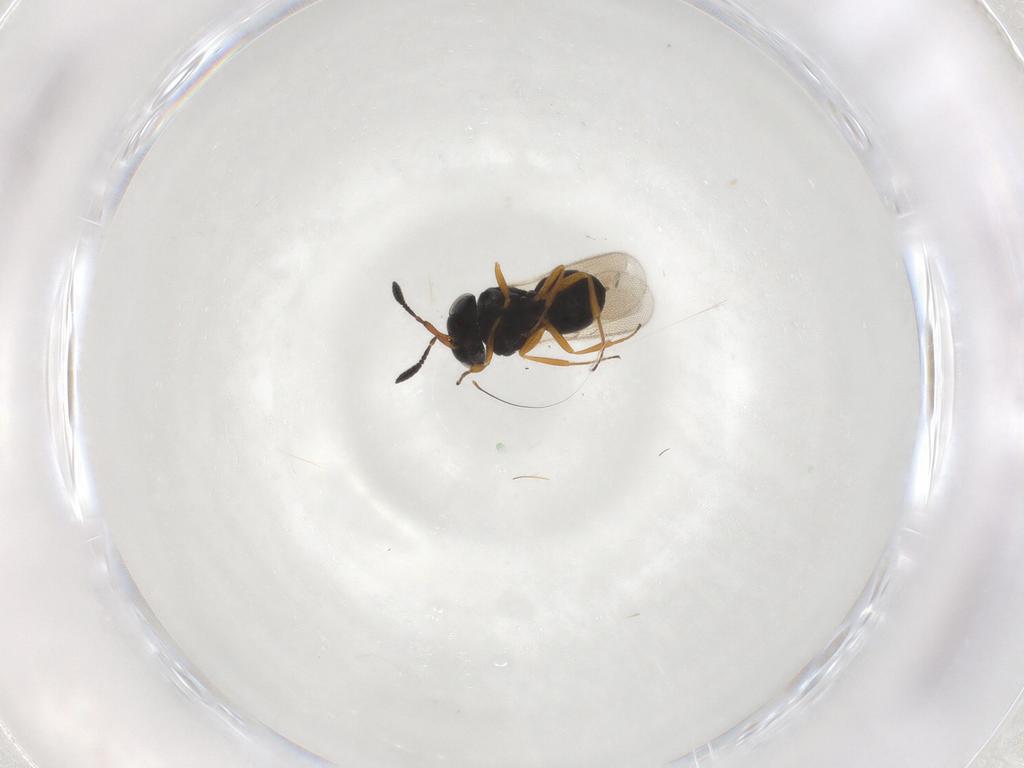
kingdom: Animalia
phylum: Arthropoda
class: Insecta
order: Hymenoptera
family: Scelionidae
